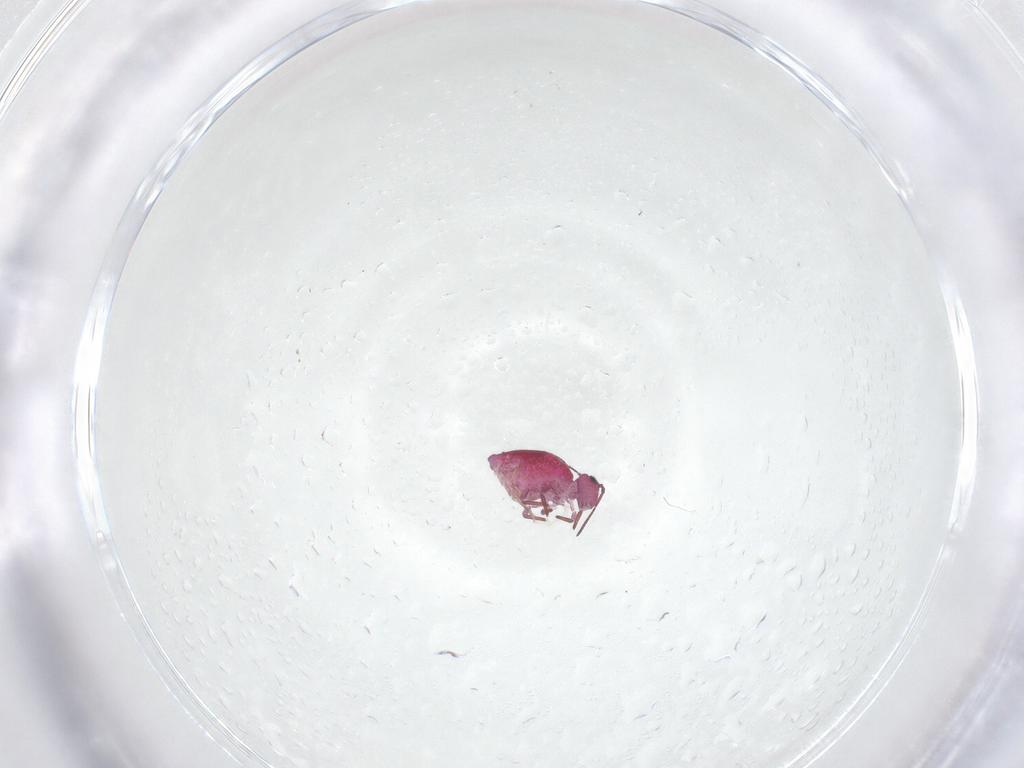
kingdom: Animalia
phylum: Arthropoda
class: Collembola
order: Symphypleona
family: Sminthuridae
